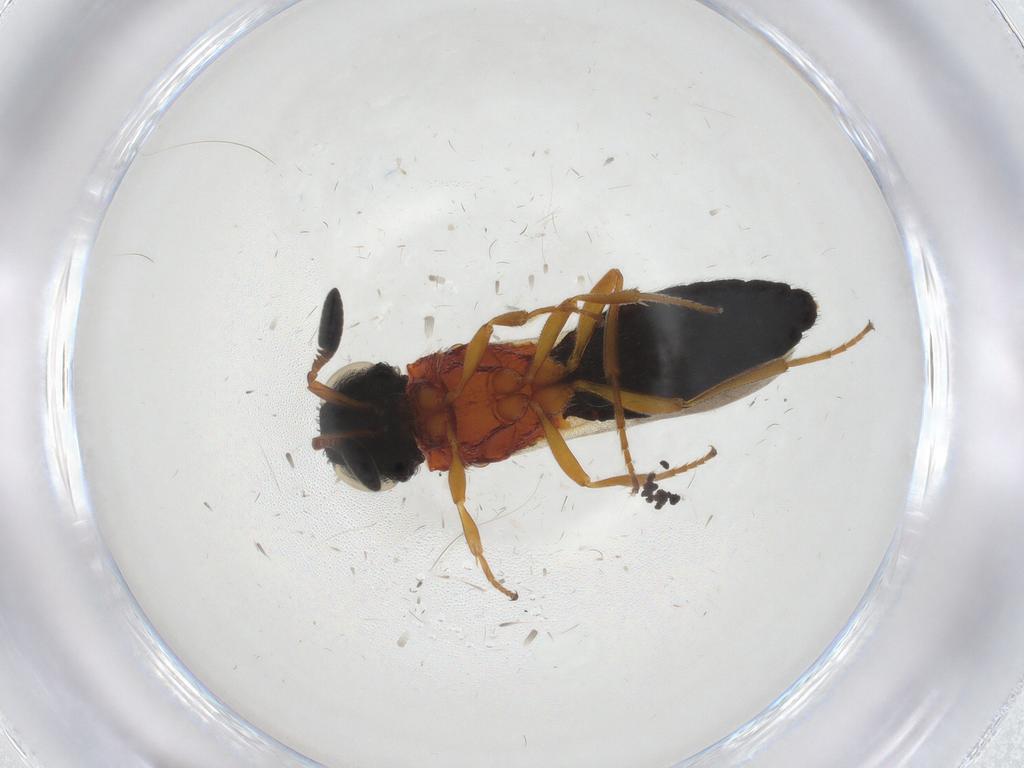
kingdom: Animalia
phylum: Arthropoda
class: Insecta
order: Hymenoptera
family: Scelionidae
